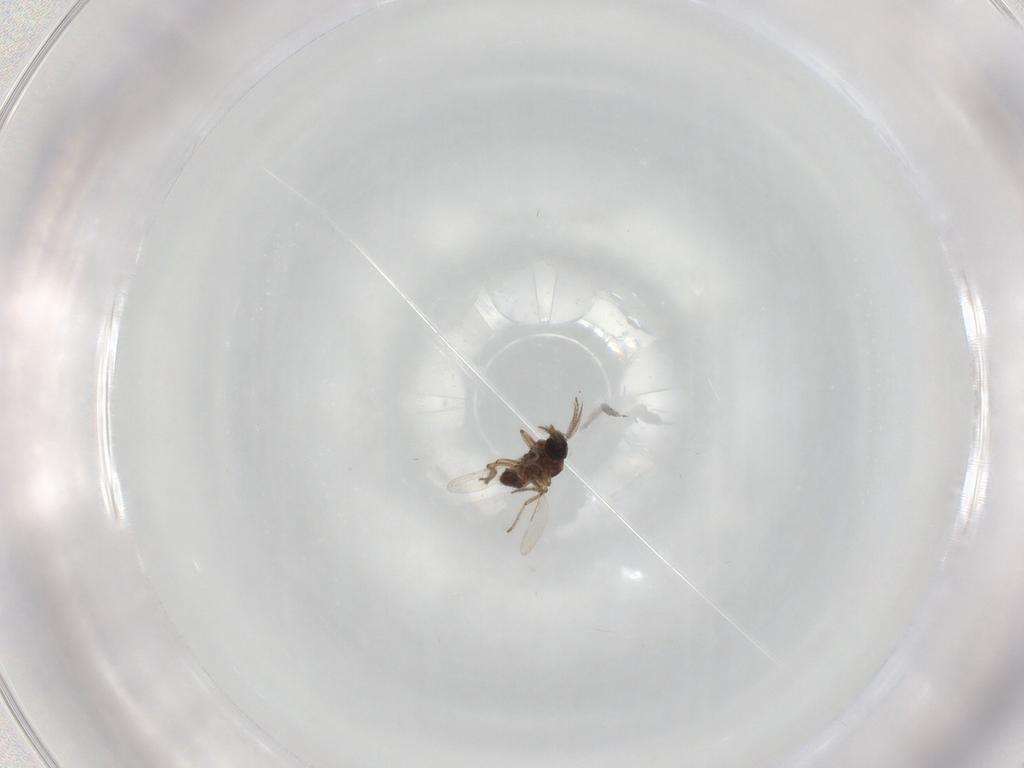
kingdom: Animalia
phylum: Arthropoda
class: Insecta
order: Diptera
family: Ceratopogonidae
